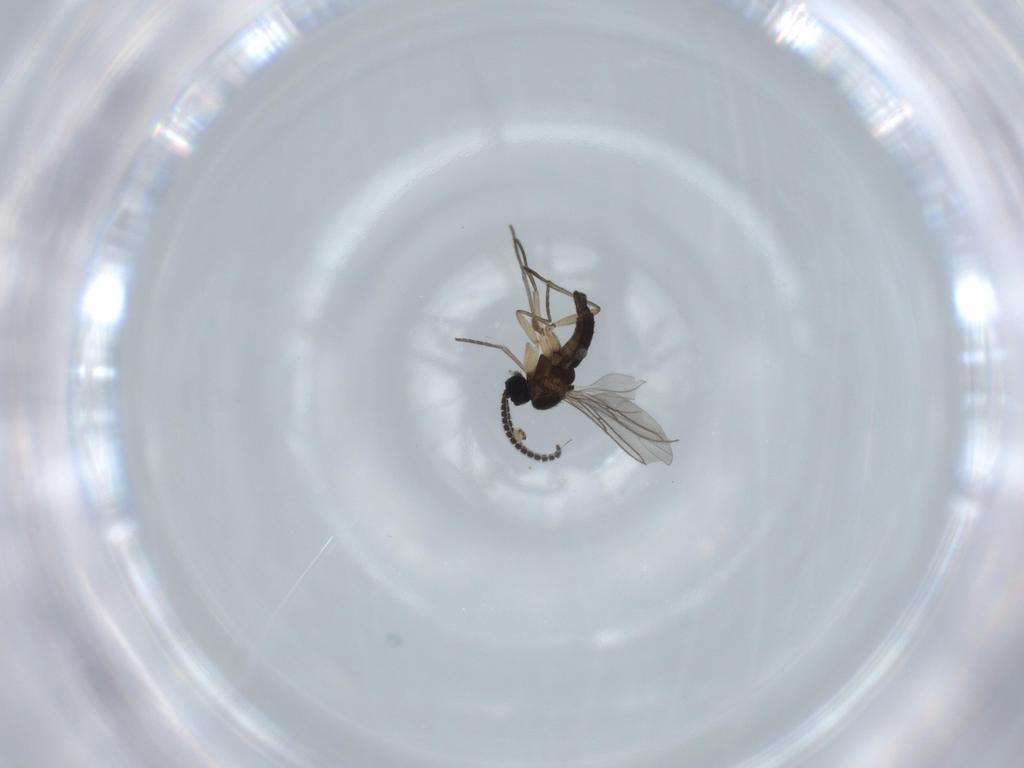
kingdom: Animalia
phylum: Arthropoda
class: Insecta
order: Diptera
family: Sciaridae
